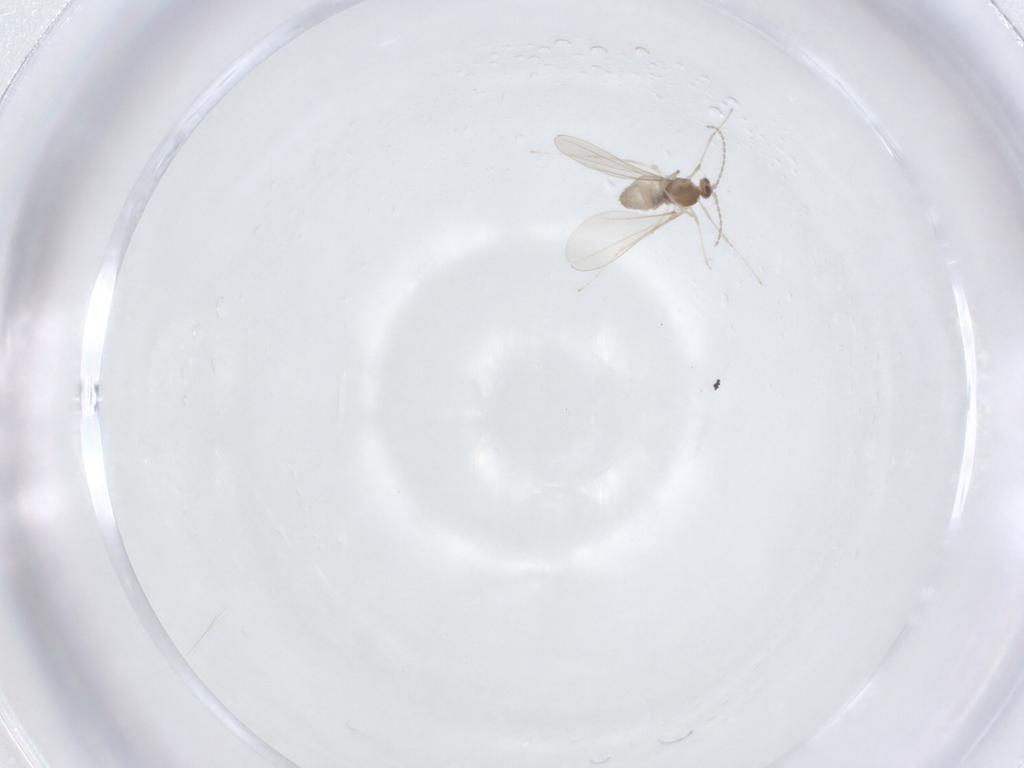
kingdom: Animalia
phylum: Arthropoda
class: Insecta
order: Diptera
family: Cecidomyiidae
